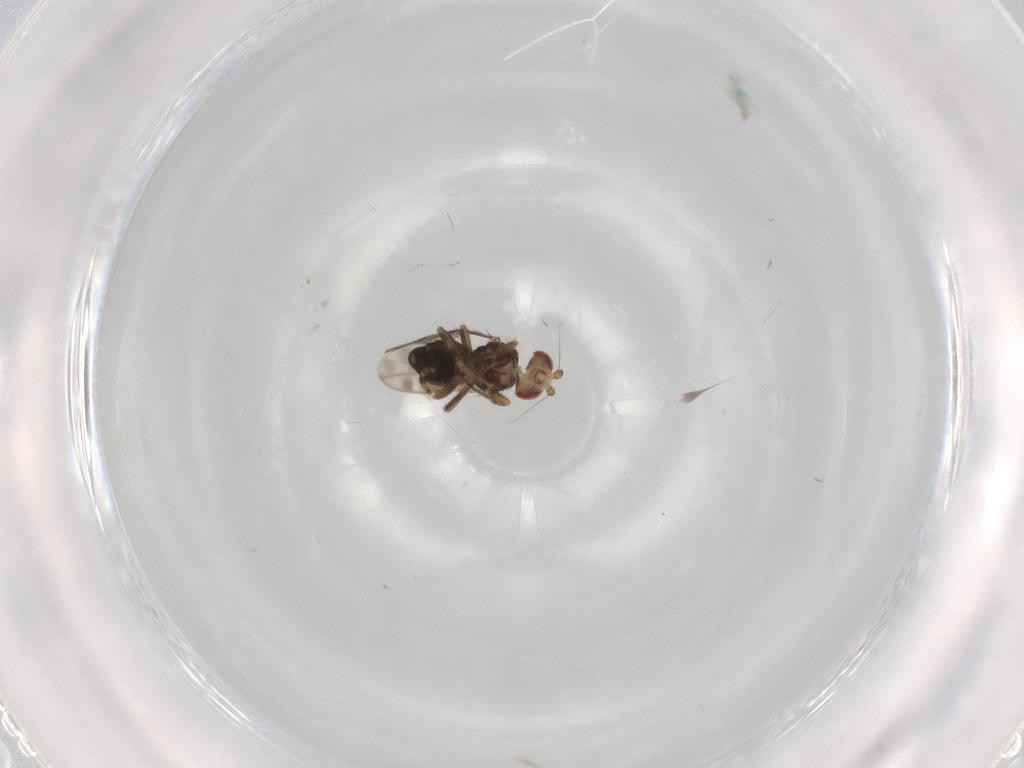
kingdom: Animalia
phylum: Arthropoda
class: Insecta
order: Diptera
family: Sphaeroceridae
